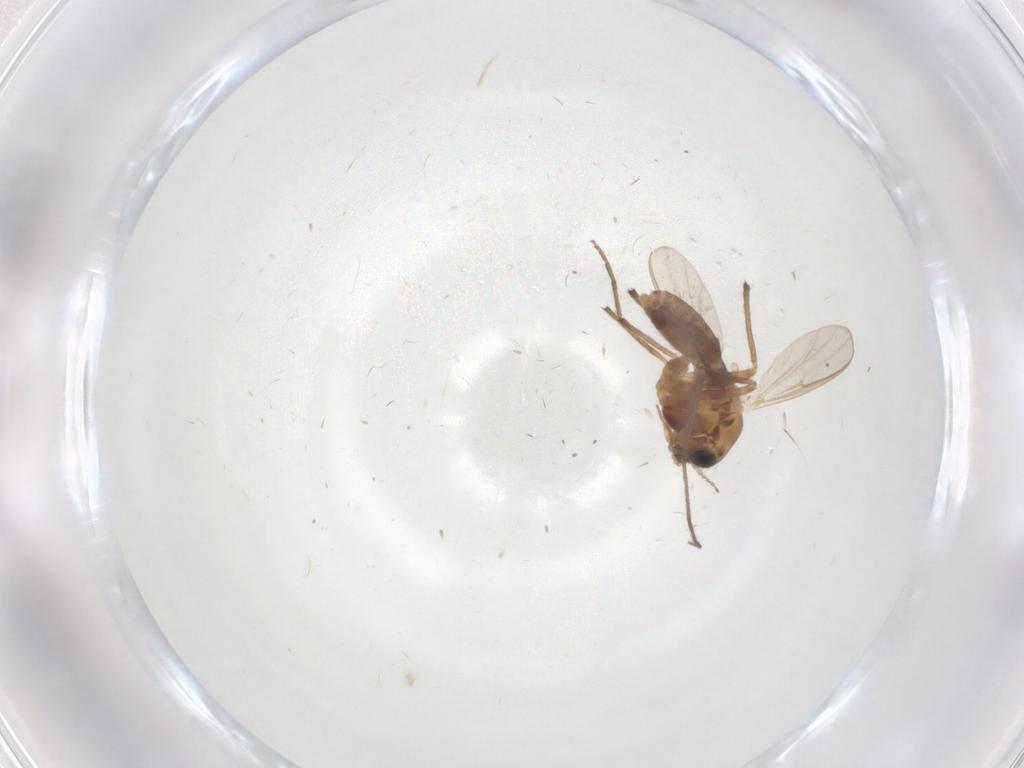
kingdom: Animalia
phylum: Arthropoda
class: Insecta
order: Diptera
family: Chironomidae
